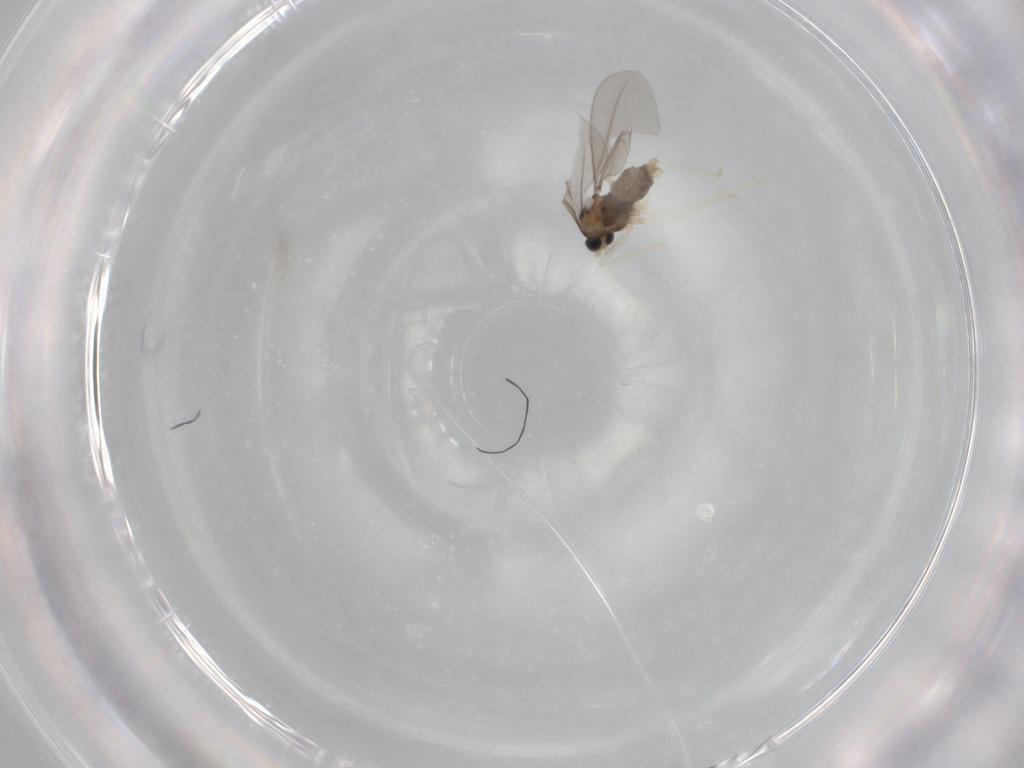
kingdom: Animalia
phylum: Arthropoda
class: Insecta
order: Diptera
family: Cecidomyiidae
